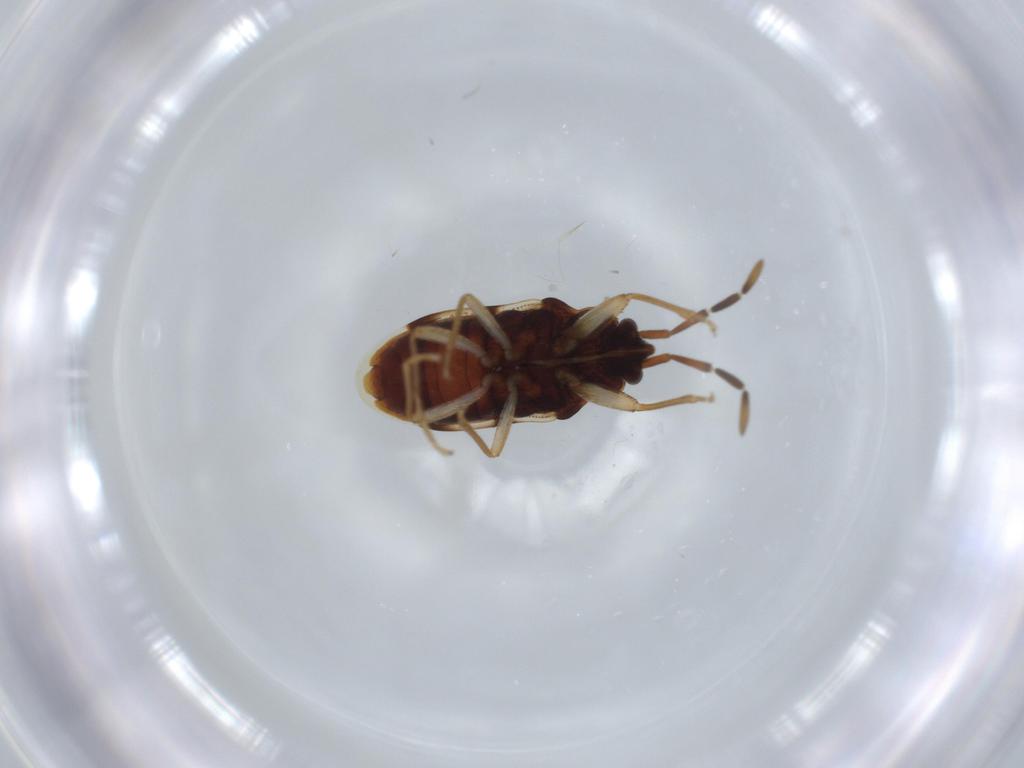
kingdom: Animalia
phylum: Arthropoda
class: Insecta
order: Hemiptera
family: Rhyparochromidae
